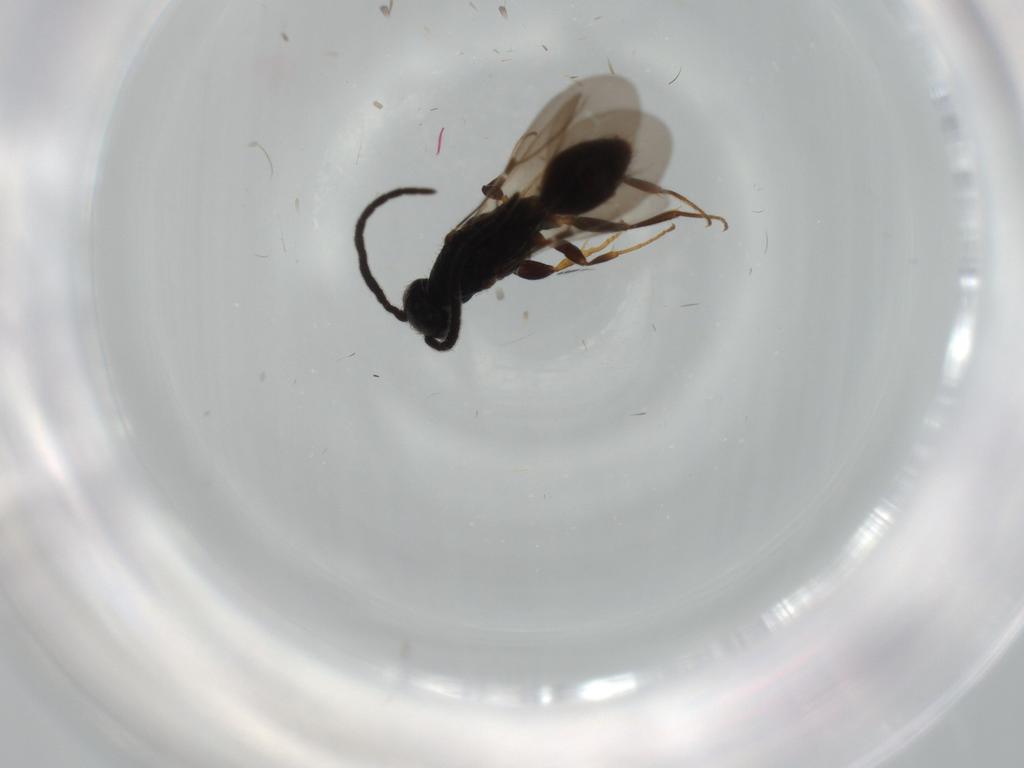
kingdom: Animalia
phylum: Arthropoda
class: Insecta
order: Hymenoptera
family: Bethylidae
